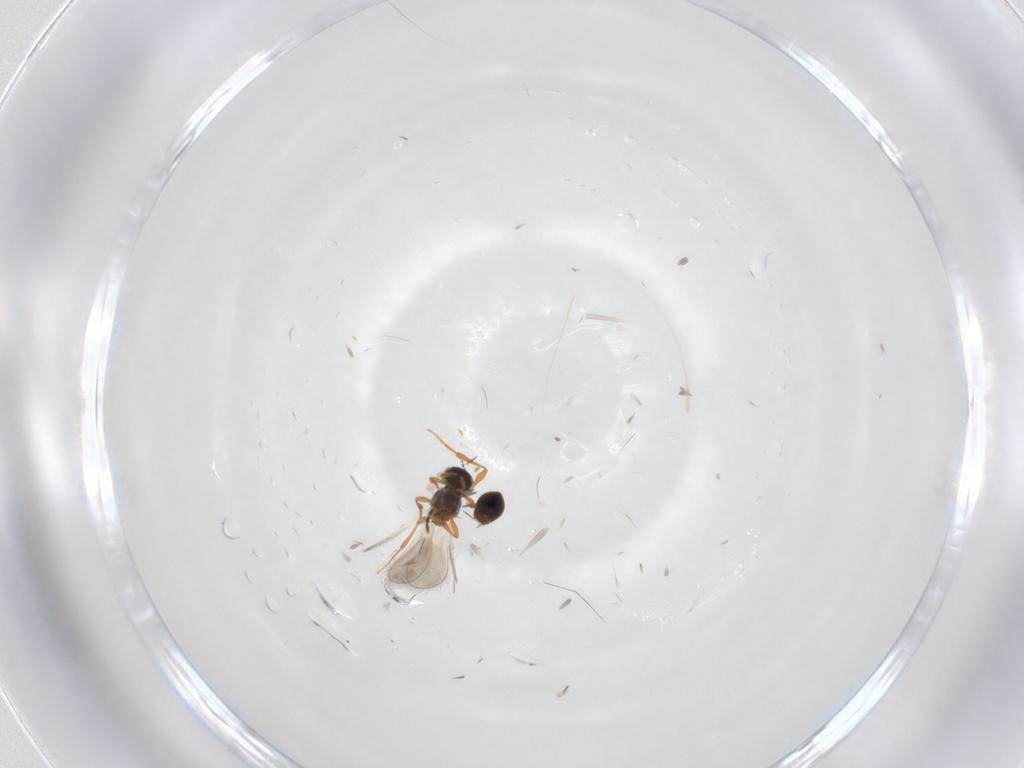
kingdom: Animalia
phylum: Arthropoda
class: Insecta
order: Hymenoptera
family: Platygastridae
